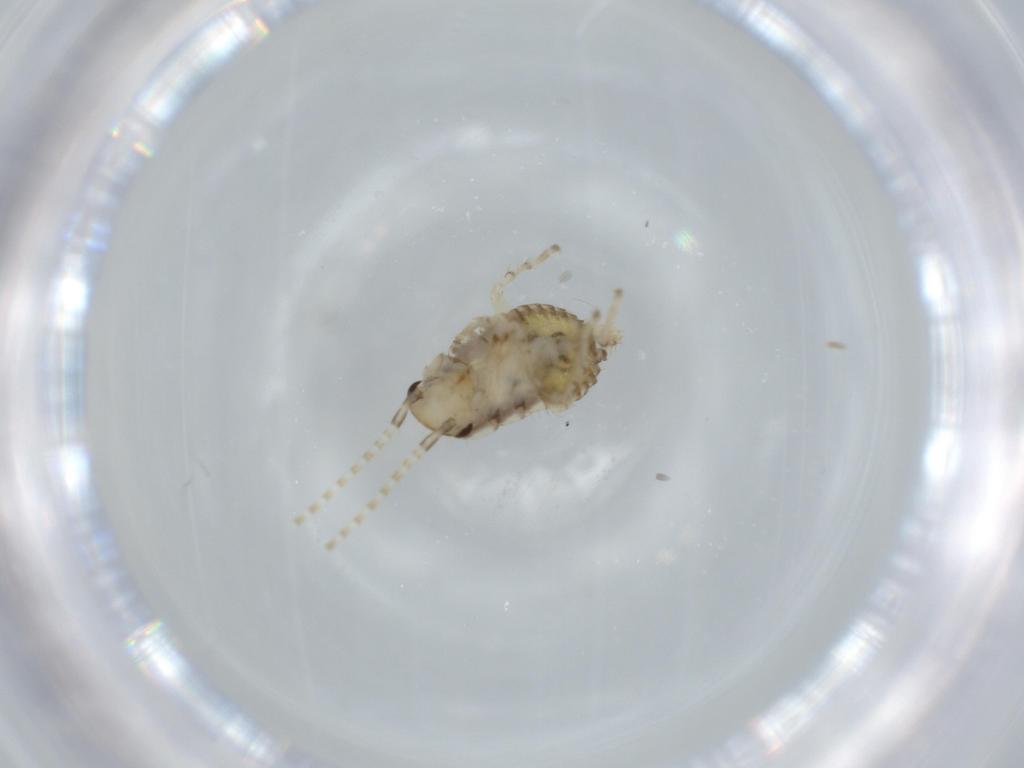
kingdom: Animalia
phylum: Arthropoda
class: Insecta
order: Blattodea
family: Ectobiidae
